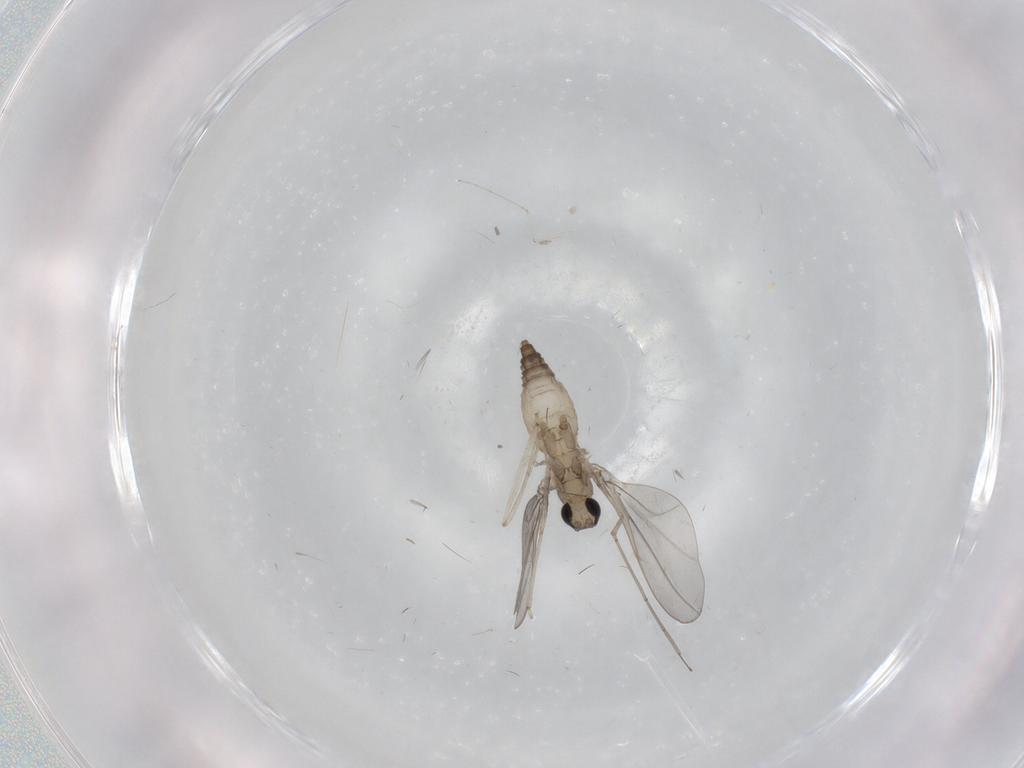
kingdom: Animalia
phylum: Arthropoda
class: Insecta
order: Diptera
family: Cecidomyiidae
